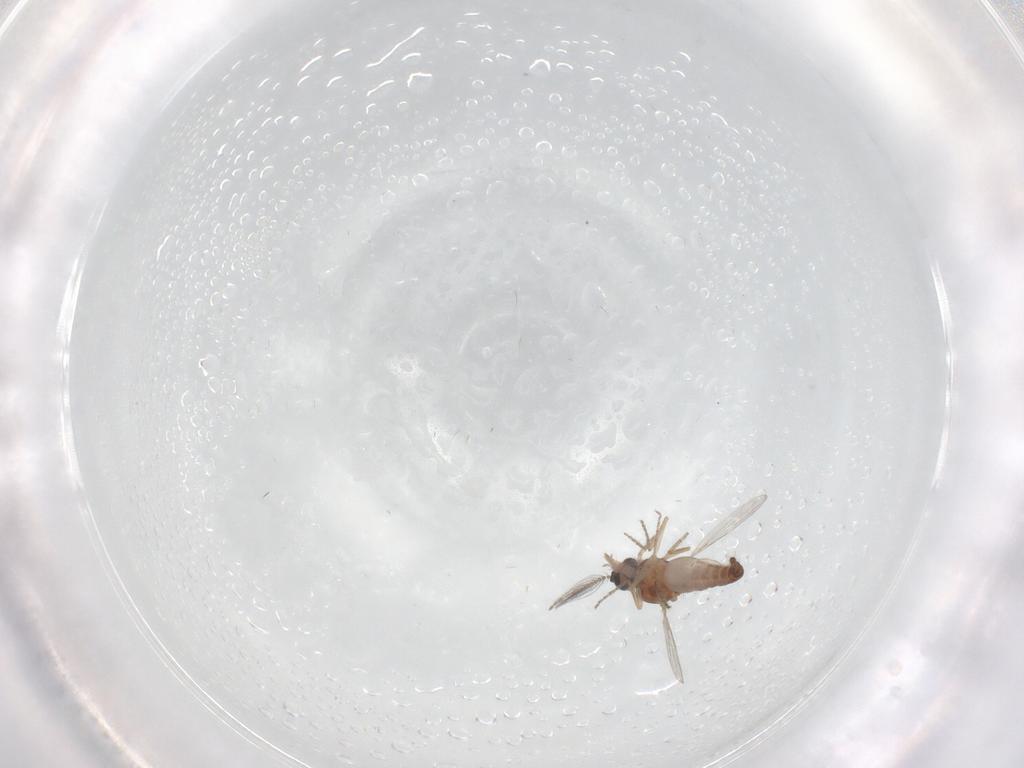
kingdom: Animalia
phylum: Arthropoda
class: Insecta
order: Diptera
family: Ceratopogonidae
